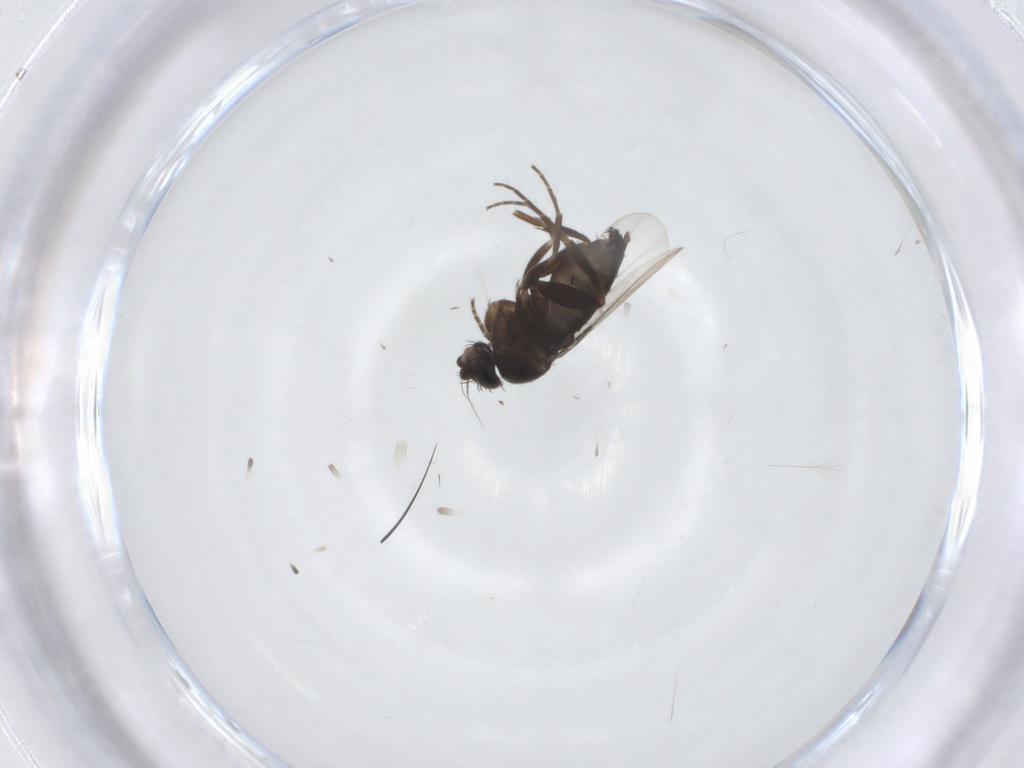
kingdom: Animalia
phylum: Arthropoda
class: Insecta
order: Diptera
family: Phoridae
